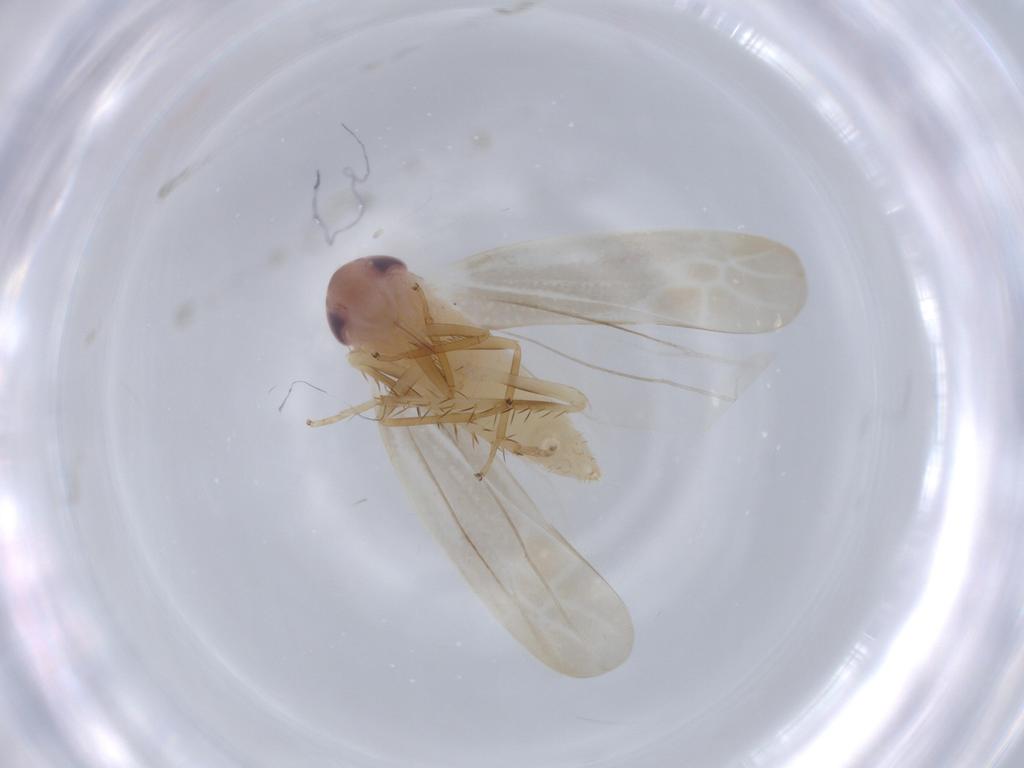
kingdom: Animalia
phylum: Arthropoda
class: Insecta
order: Hemiptera
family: Cicadellidae
